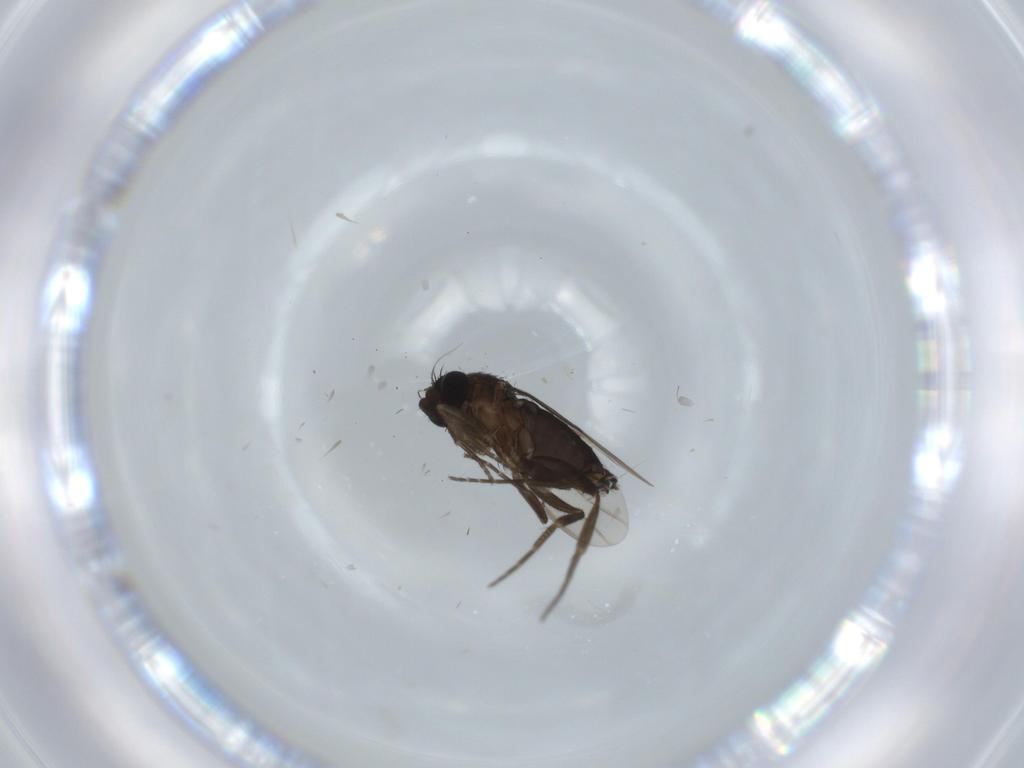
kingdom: Animalia
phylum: Arthropoda
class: Insecta
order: Diptera
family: Phoridae
